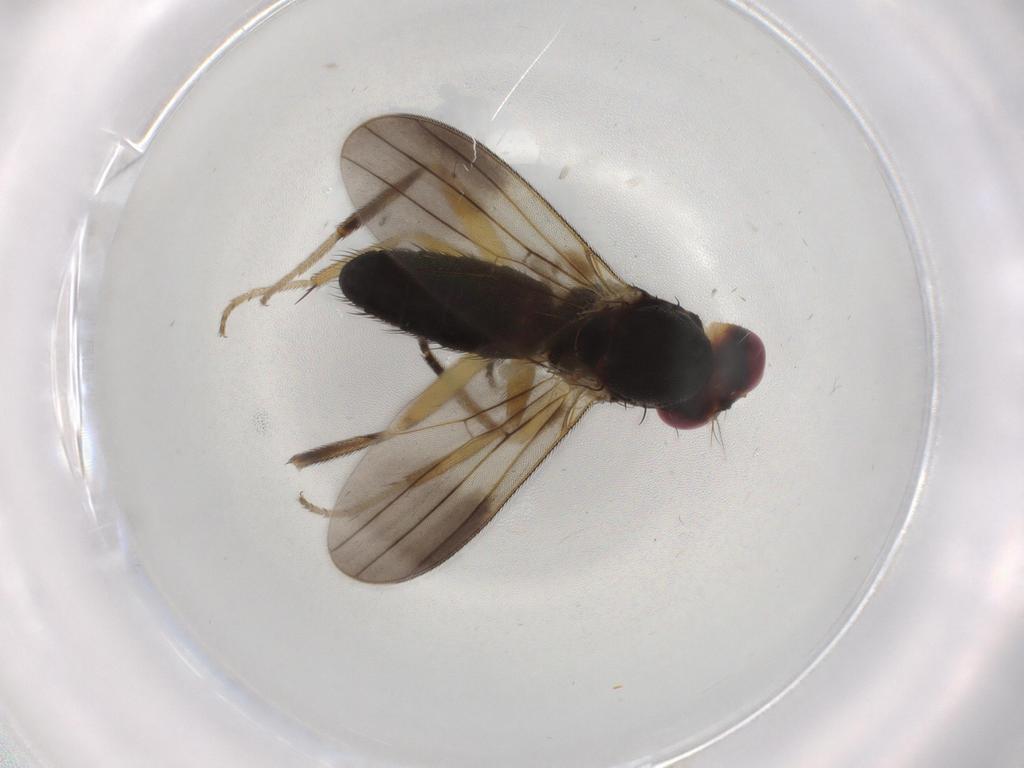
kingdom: Animalia
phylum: Arthropoda
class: Insecta
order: Diptera
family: Clusiidae
